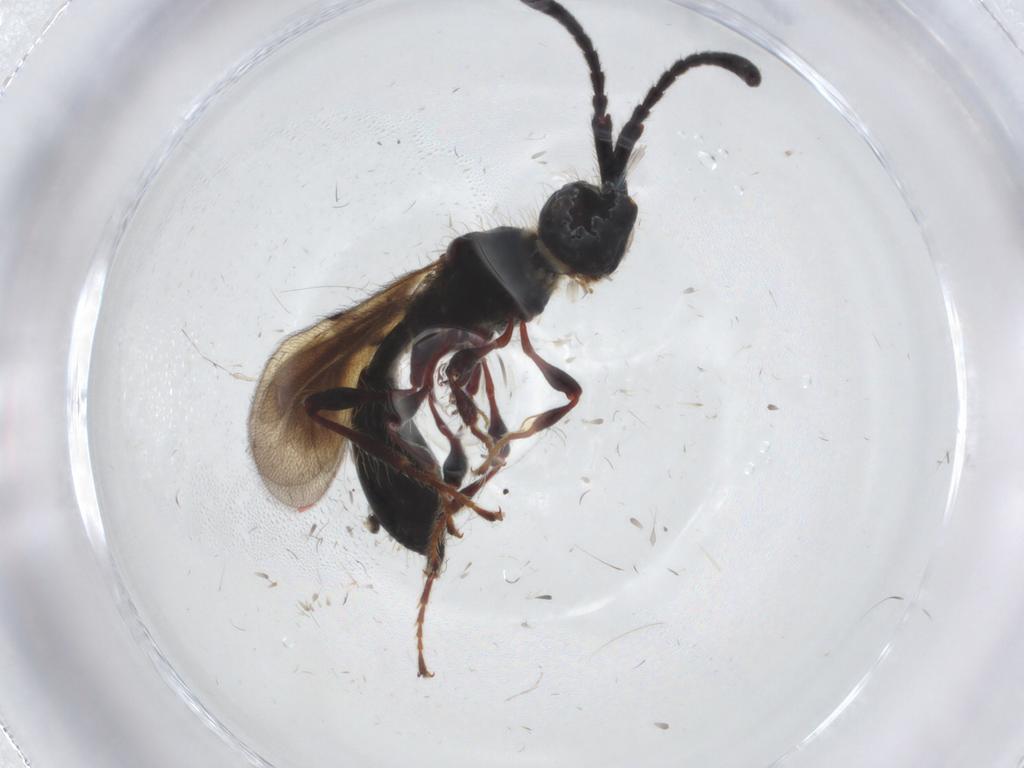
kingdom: Animalia
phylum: Arthropoda
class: Insecta
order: Hymenoptera
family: Diapriidae
